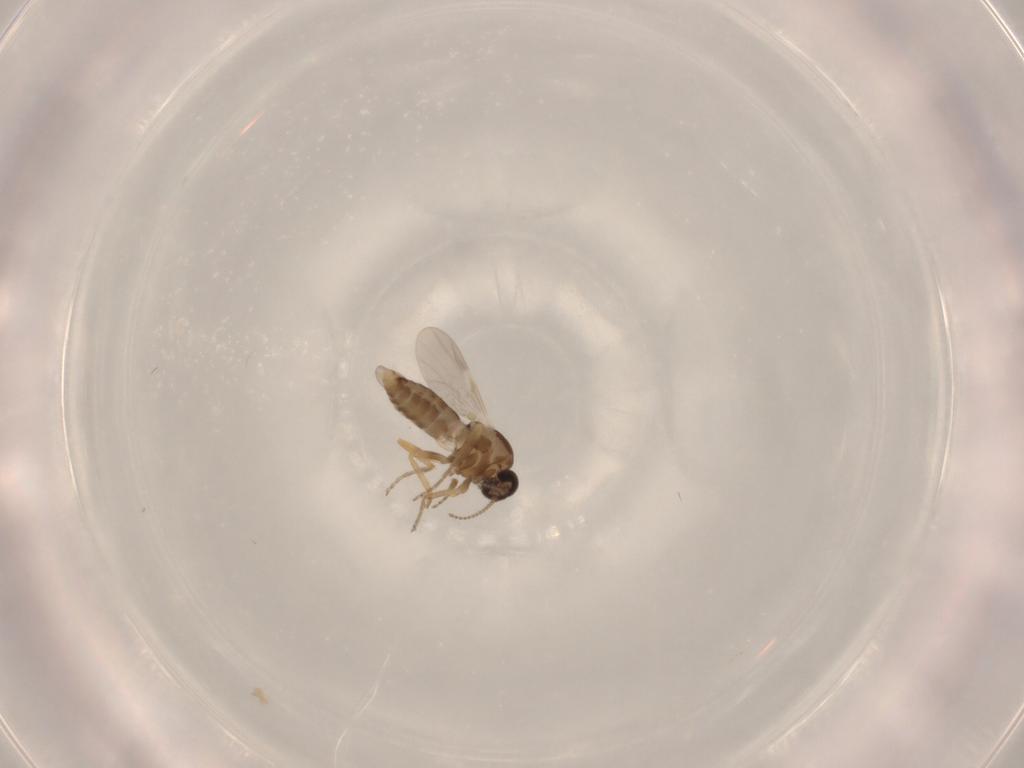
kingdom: Animalia
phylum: Arthropoda
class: Insecta
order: Diptera
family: Ceratopogonidae
